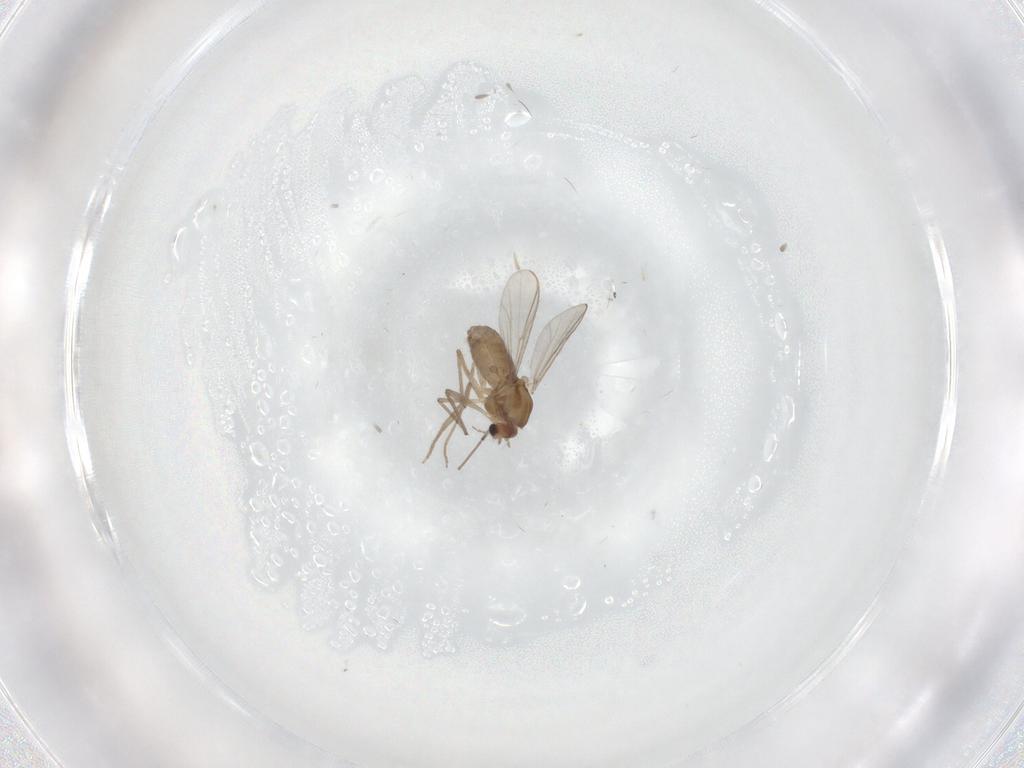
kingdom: Animalia
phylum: Arthropoda
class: Insecta
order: Diptera
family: Chironomidae
